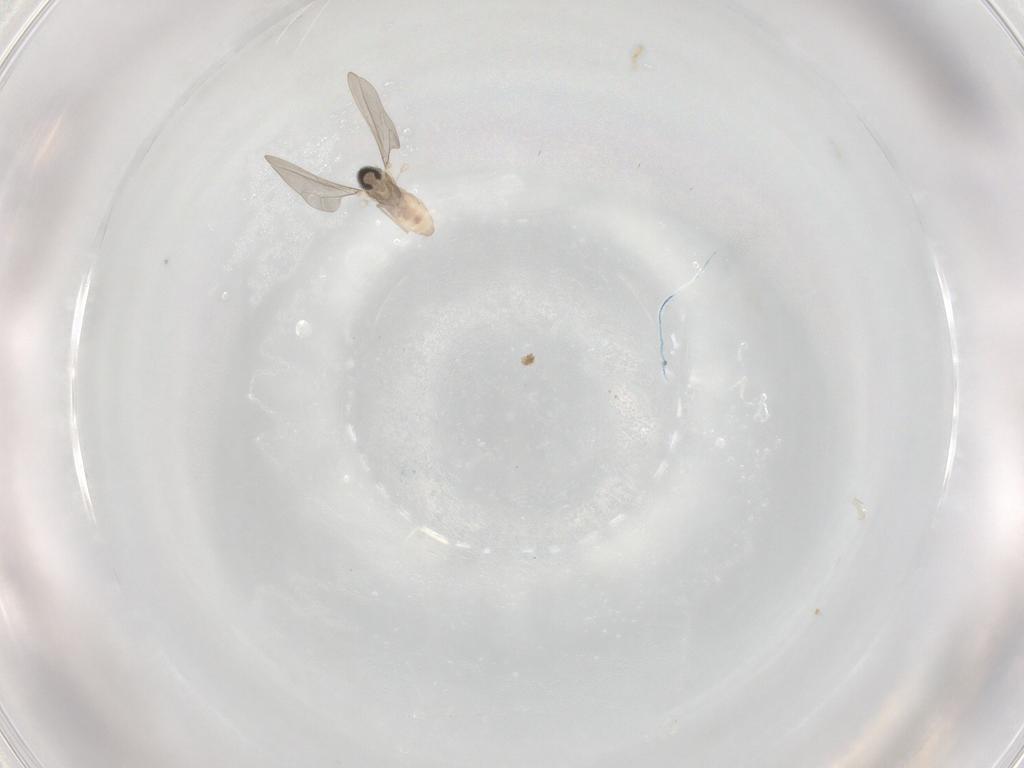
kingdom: Animalia
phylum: Arthropoda
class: Insecta
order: Diptera
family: Ceratopogonidae
